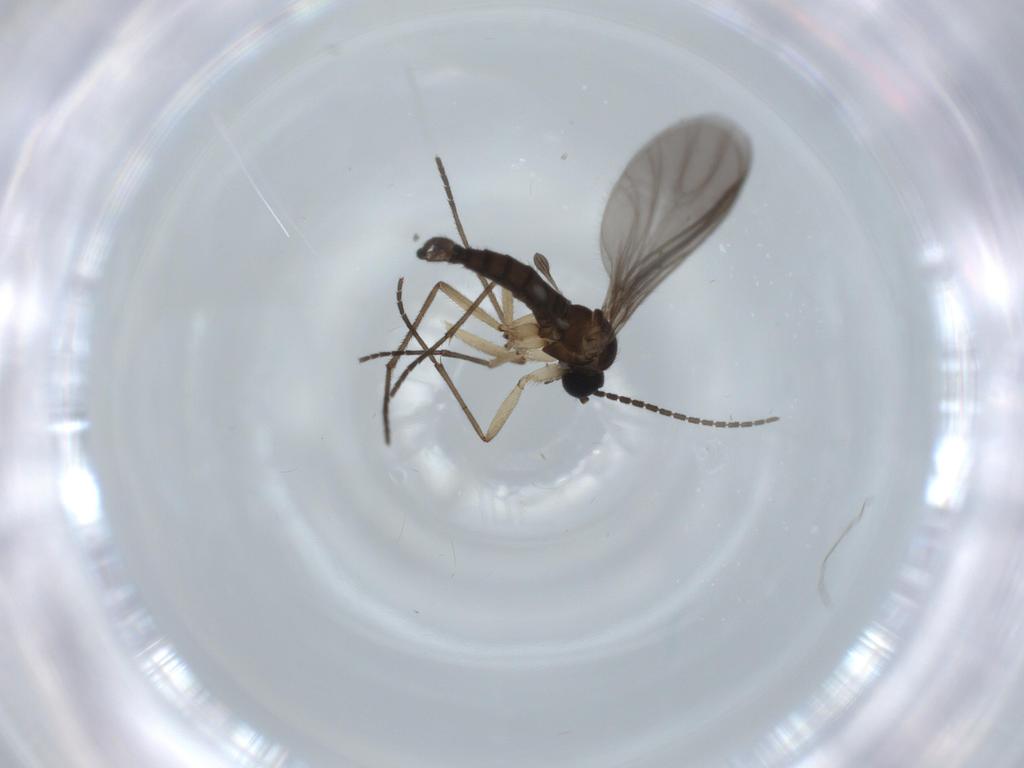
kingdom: Animalia
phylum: Arthropoda
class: Insecta
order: Diptera
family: Sciaridae
